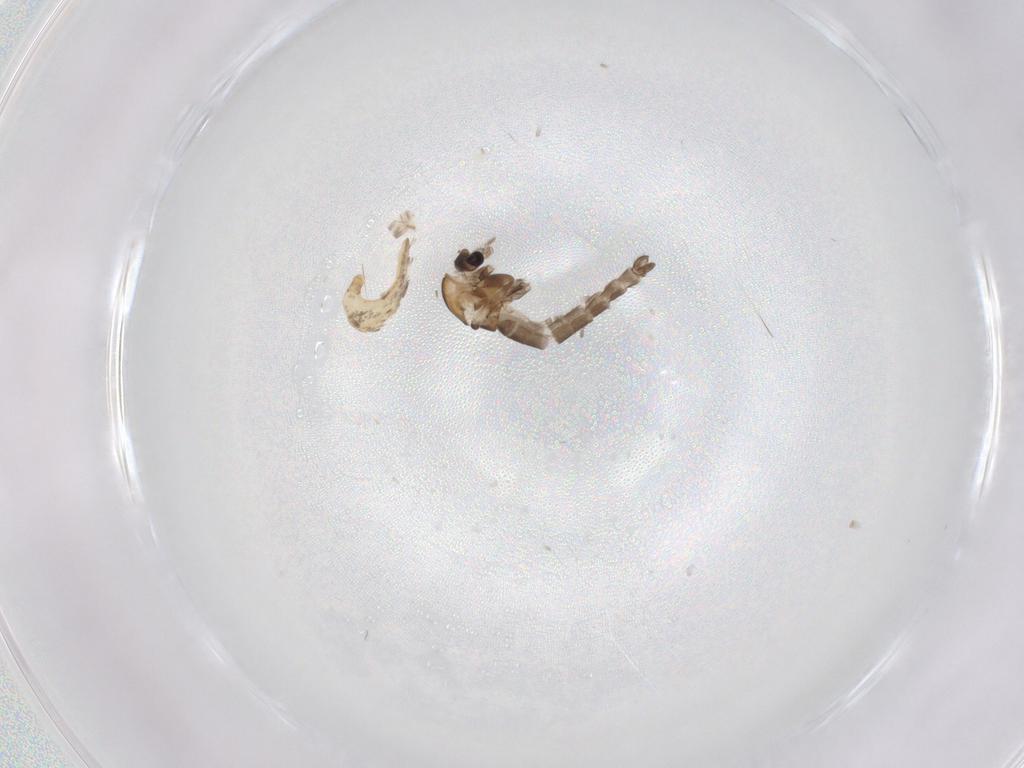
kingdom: Animalia
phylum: Arthropoda
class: Insecta
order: Diptera
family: Chironomidae
